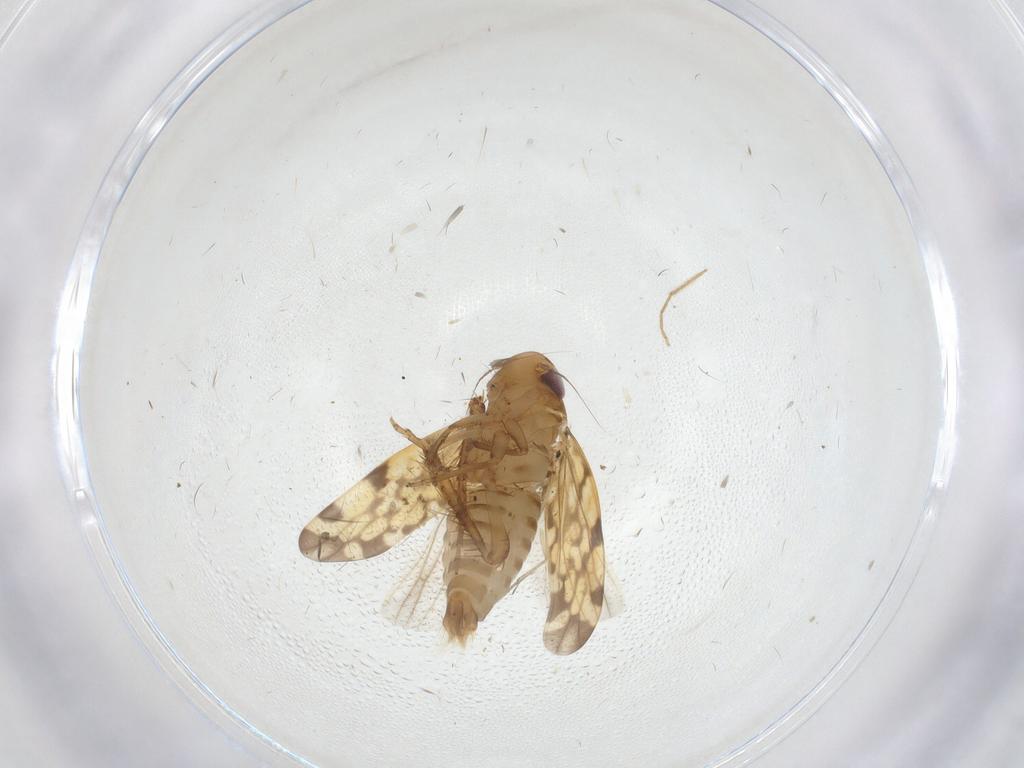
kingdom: Animalia
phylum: Arthropoda
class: Insecta
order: Hemiptera
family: Cicadellidae
